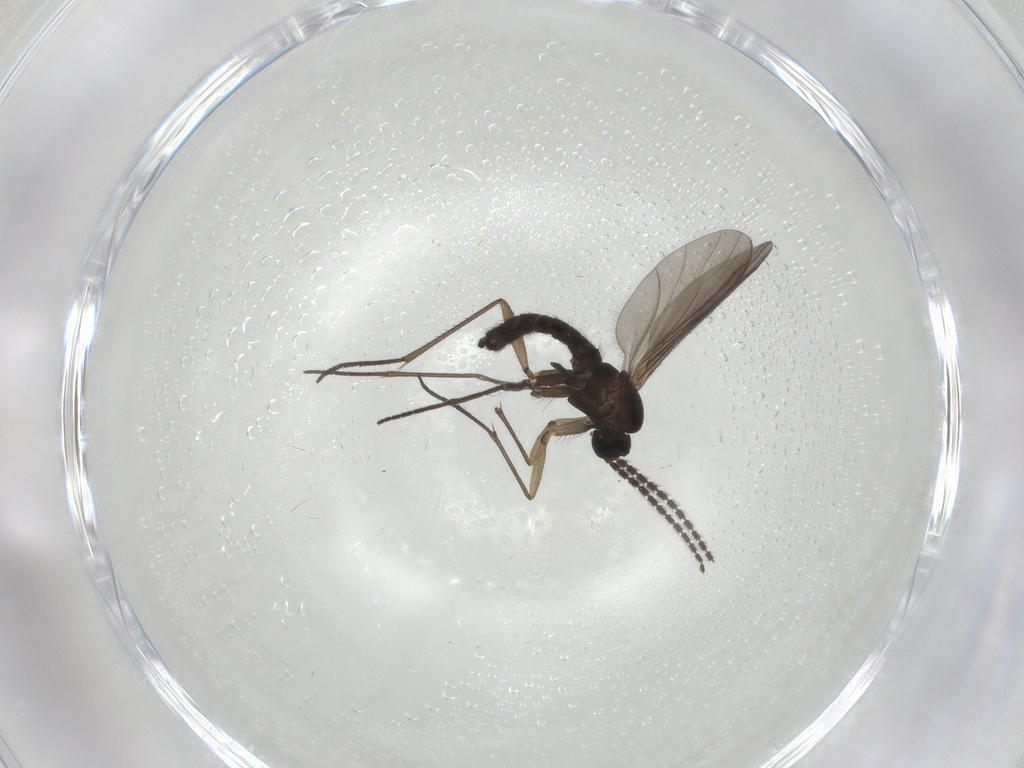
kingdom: Animalia
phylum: Arthropoda
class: Insecta
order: Diptera
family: Sciaridae
